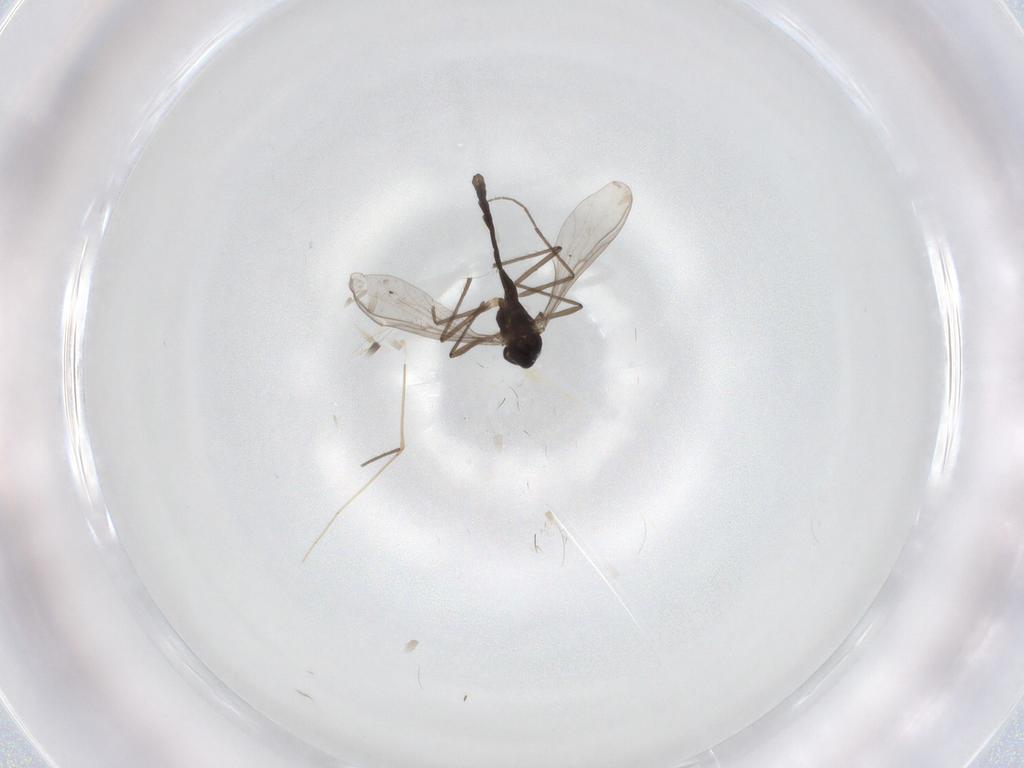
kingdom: Animalia
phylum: Arthropoda
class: Insecta
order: Diptera
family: Chironomidae
